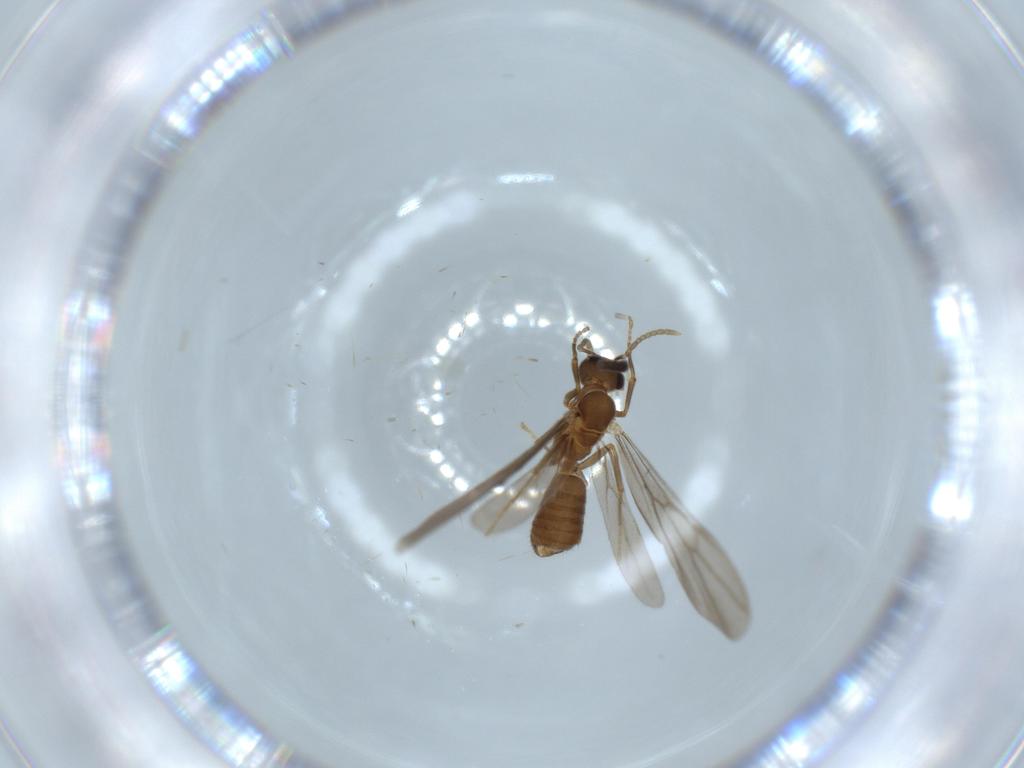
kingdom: Animalia
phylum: Arthropoda
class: Insecta
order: Hymenoptera
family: Formicidae
